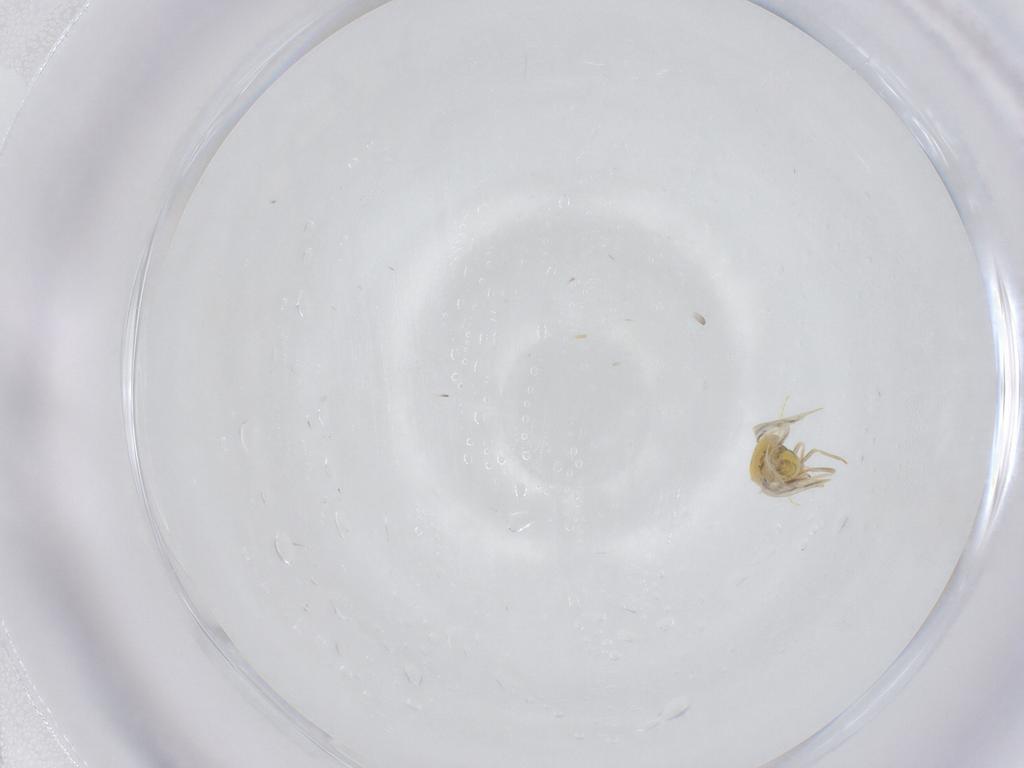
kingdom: Animalia
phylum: Arthropoda
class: Insecta
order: Hemiptera
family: Aleyrodidae
